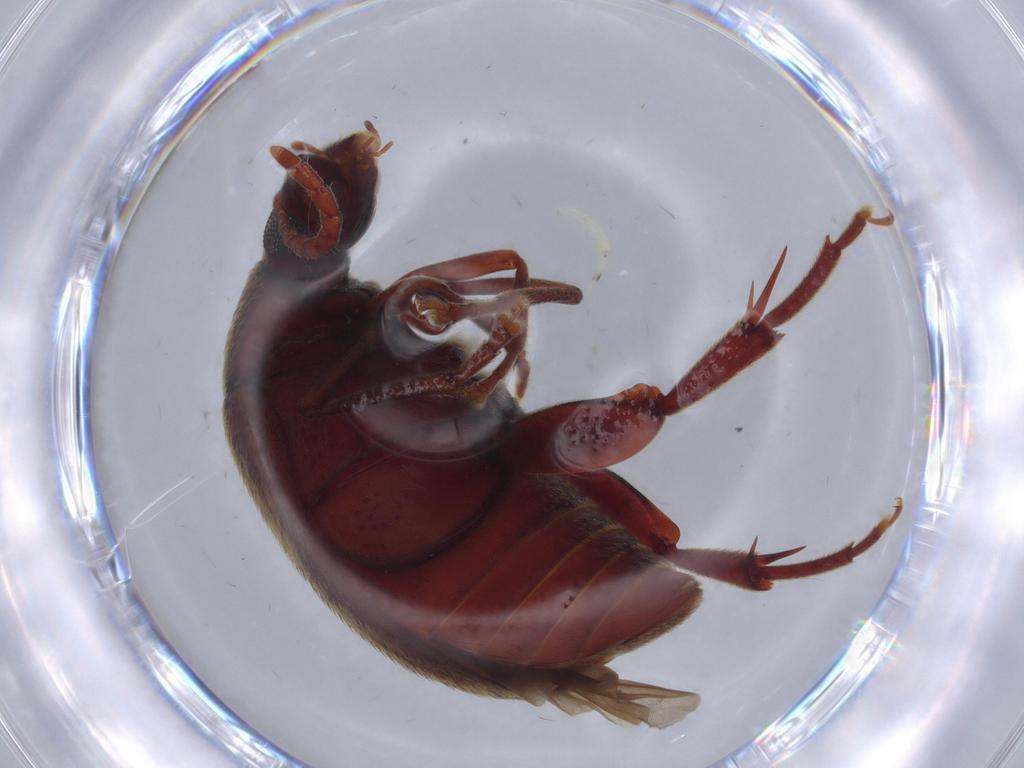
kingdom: Animalia
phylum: Arthropoda
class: Insecta
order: Coleoptera
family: Chrysomelidae
